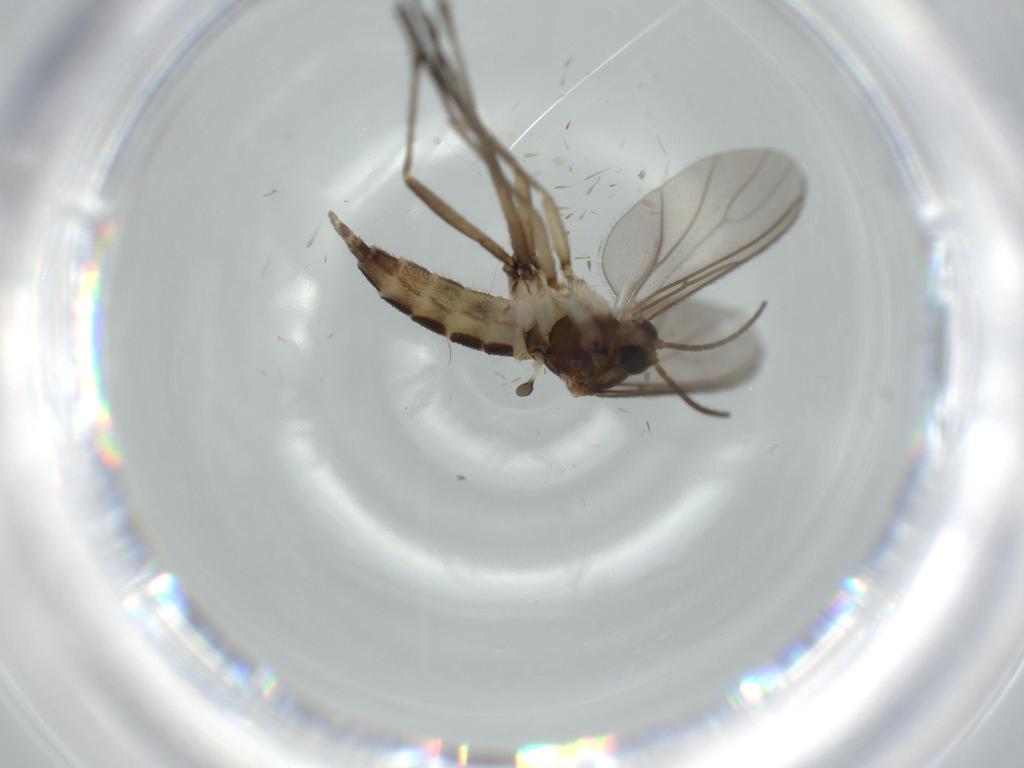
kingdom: Animalia
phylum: Arthropoda
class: Insecta
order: Diptera
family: Sciaridae
